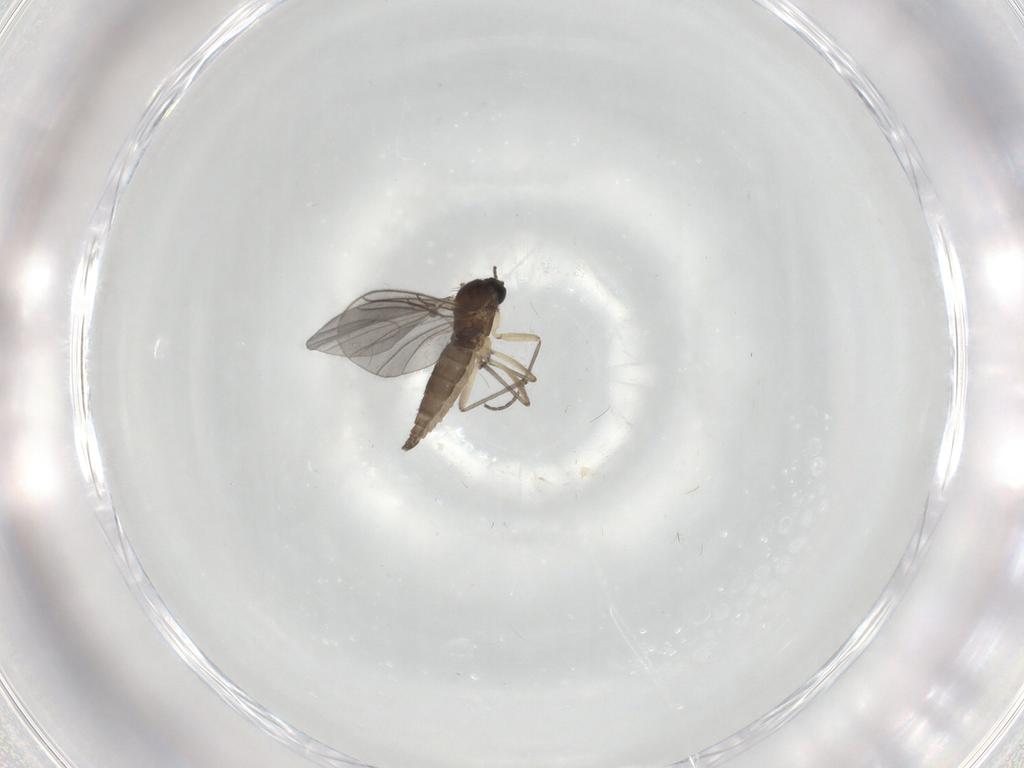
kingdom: Animalia
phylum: Arthropoda
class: Insecta
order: Diptera
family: Sciaridae
